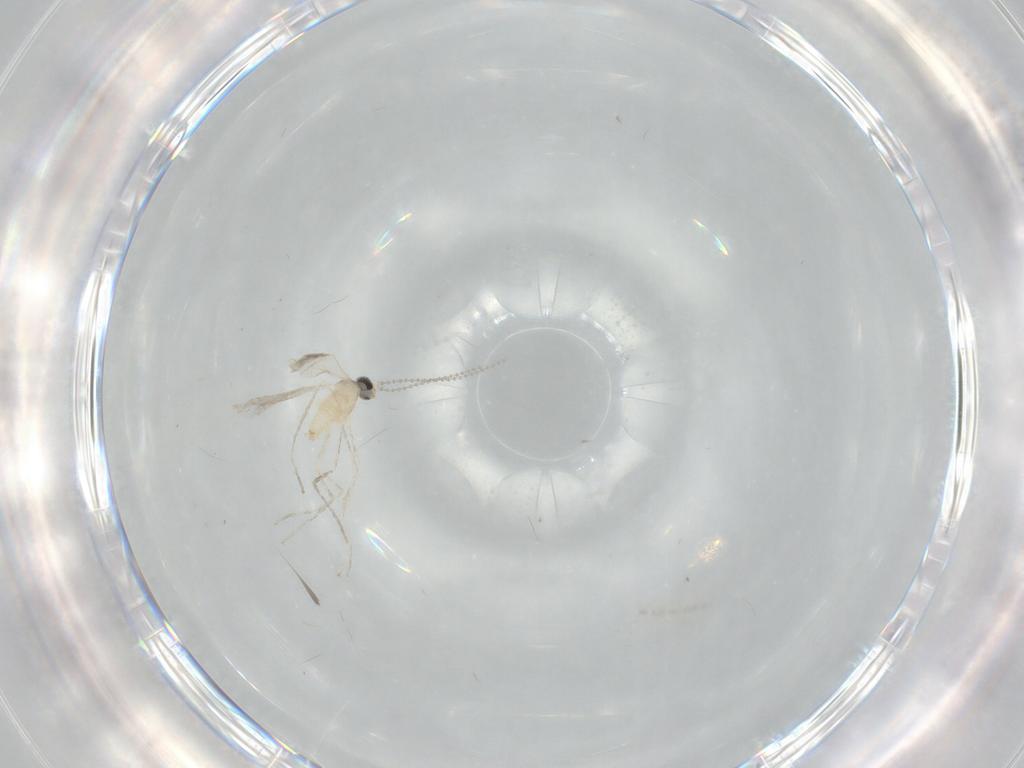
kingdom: Animalia
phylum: Arthropoda
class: Insecta
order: Diptera
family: Cecidomyiidae
